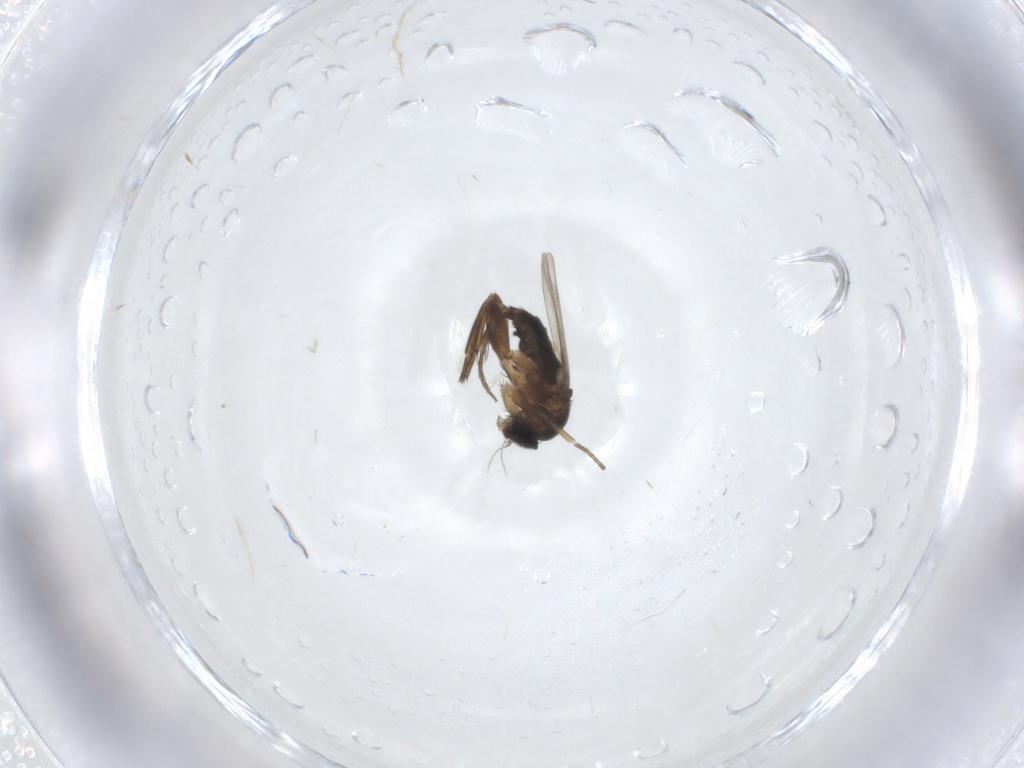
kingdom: Animalia
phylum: Arthropoda
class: Insecta
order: Diptera
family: Phoridae
